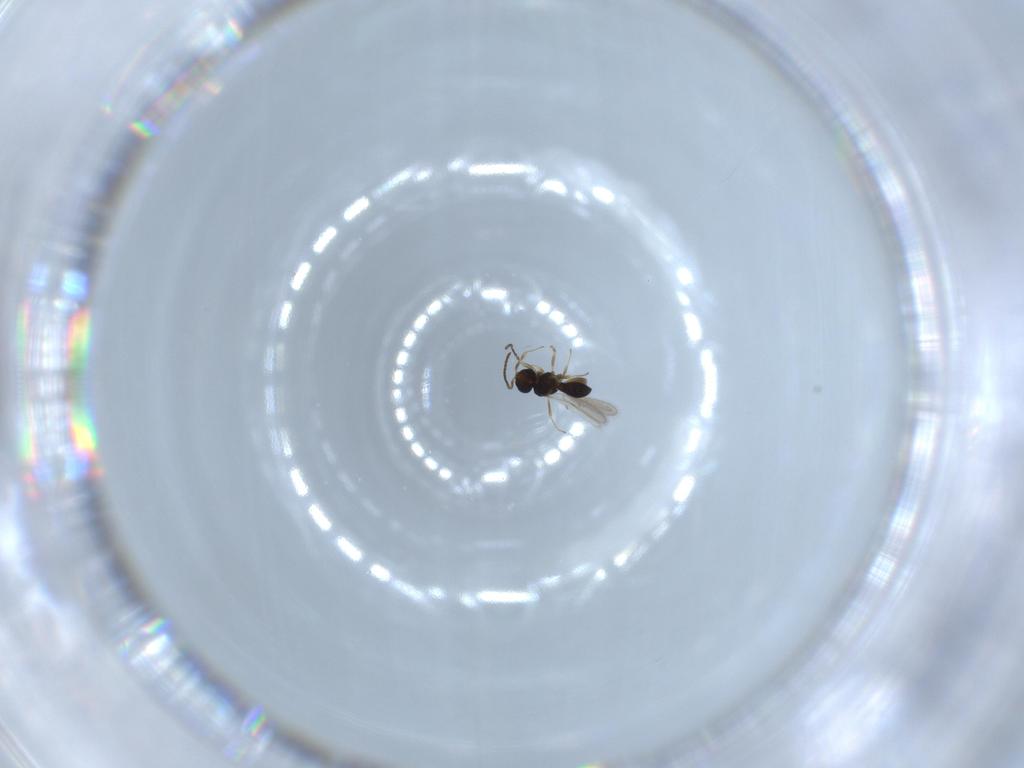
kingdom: Animalia
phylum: Arthropoda
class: Insecta
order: Hymenoptera
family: Scelionidae
